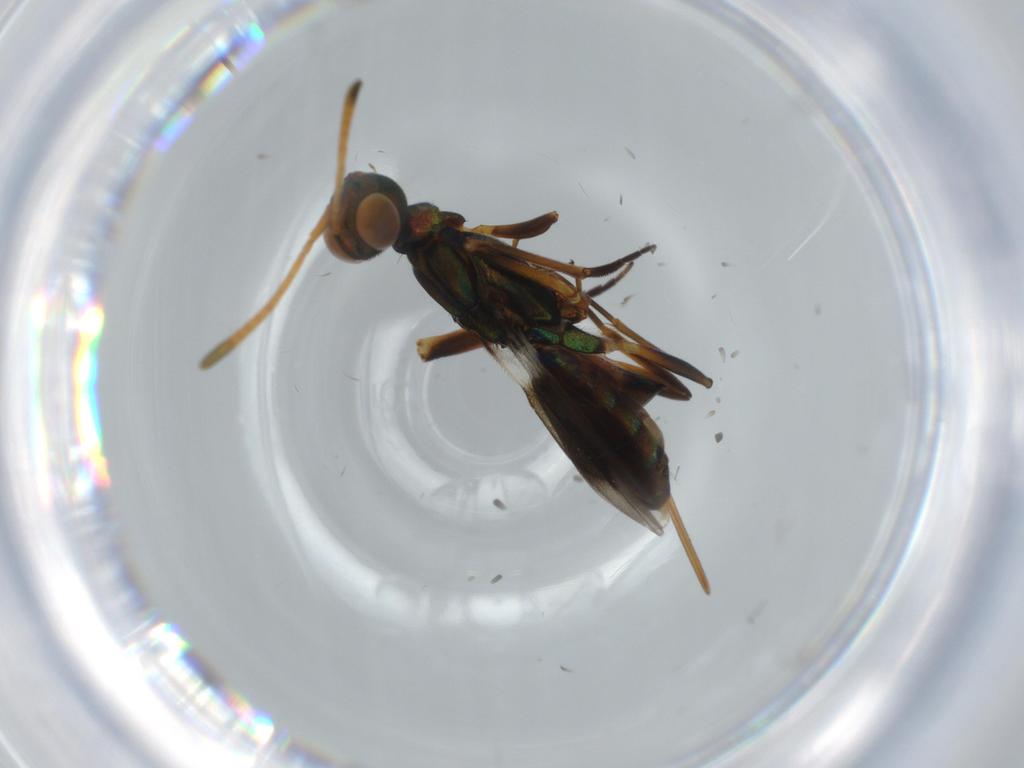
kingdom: Animalia
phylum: Arthropoda
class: Insecta
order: Hymenoptera
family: Eupelmidae
